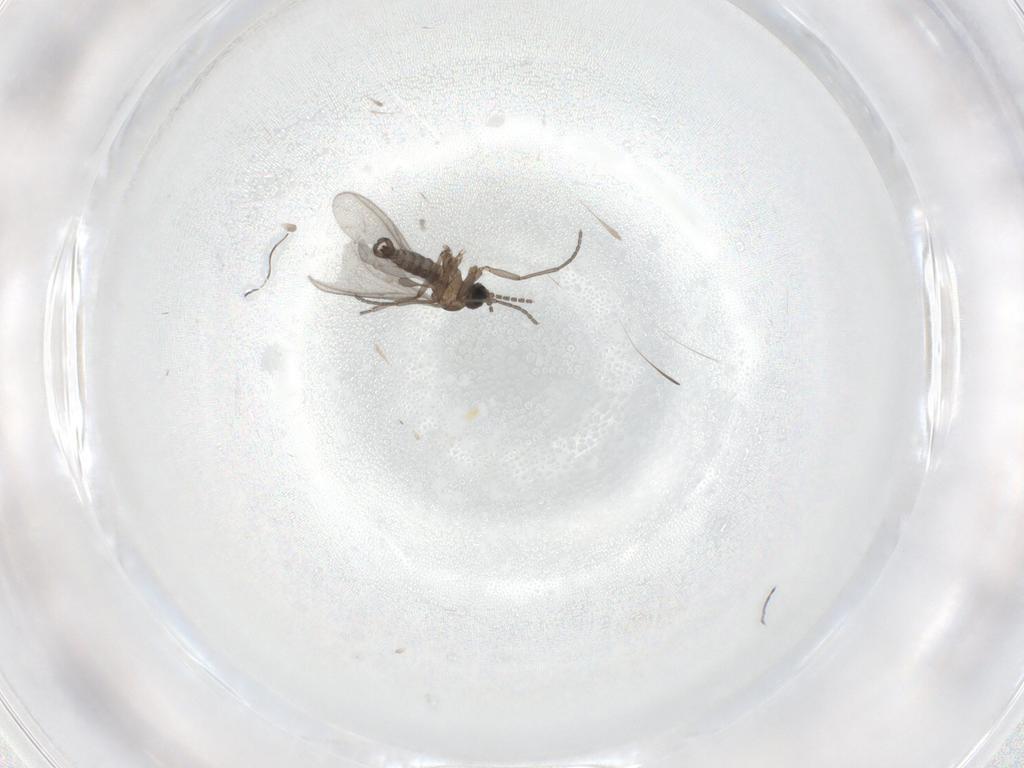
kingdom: Animalia
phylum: Arthropoda
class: Insecta
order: Diptera
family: Sciaridae
